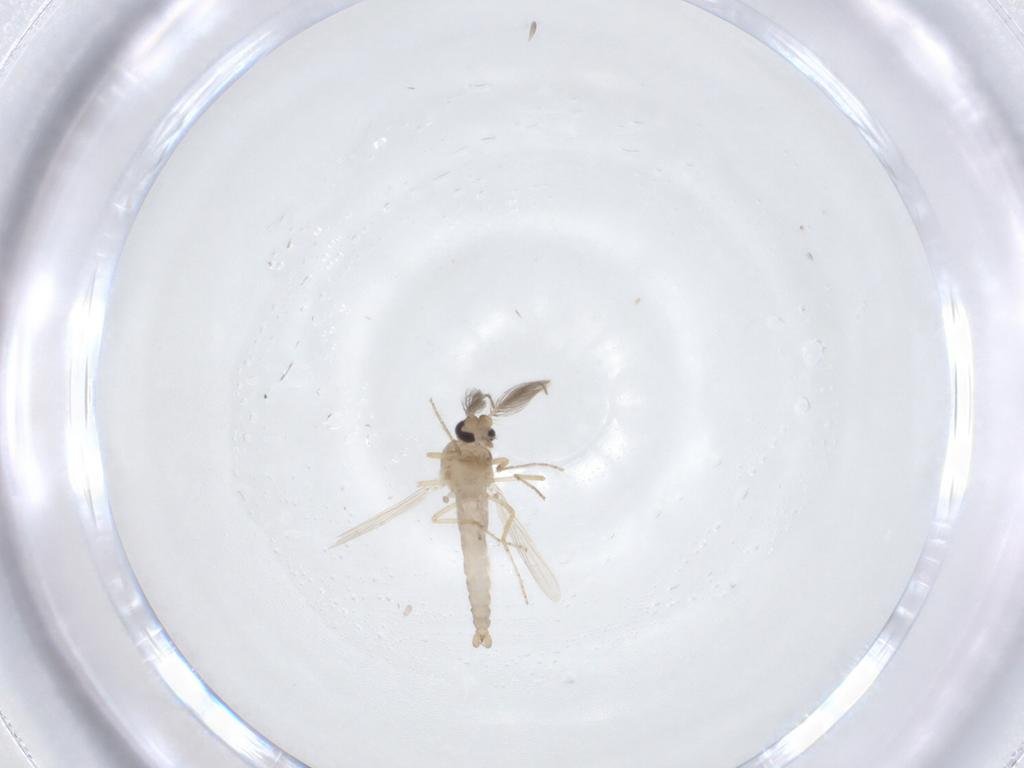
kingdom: Animalia
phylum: Arthropoda
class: Insecta
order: Diptera
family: Ceratopogonidae
